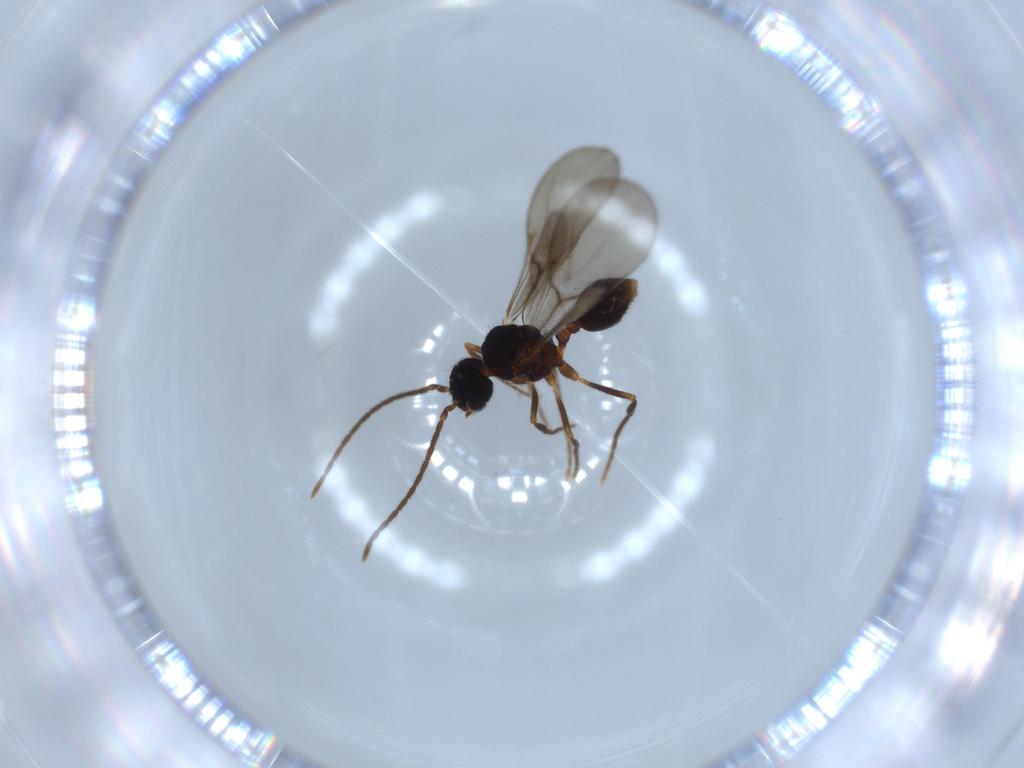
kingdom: Animalia
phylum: Arthropoda
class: Insecta
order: Hymenoptera
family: Formicidae
